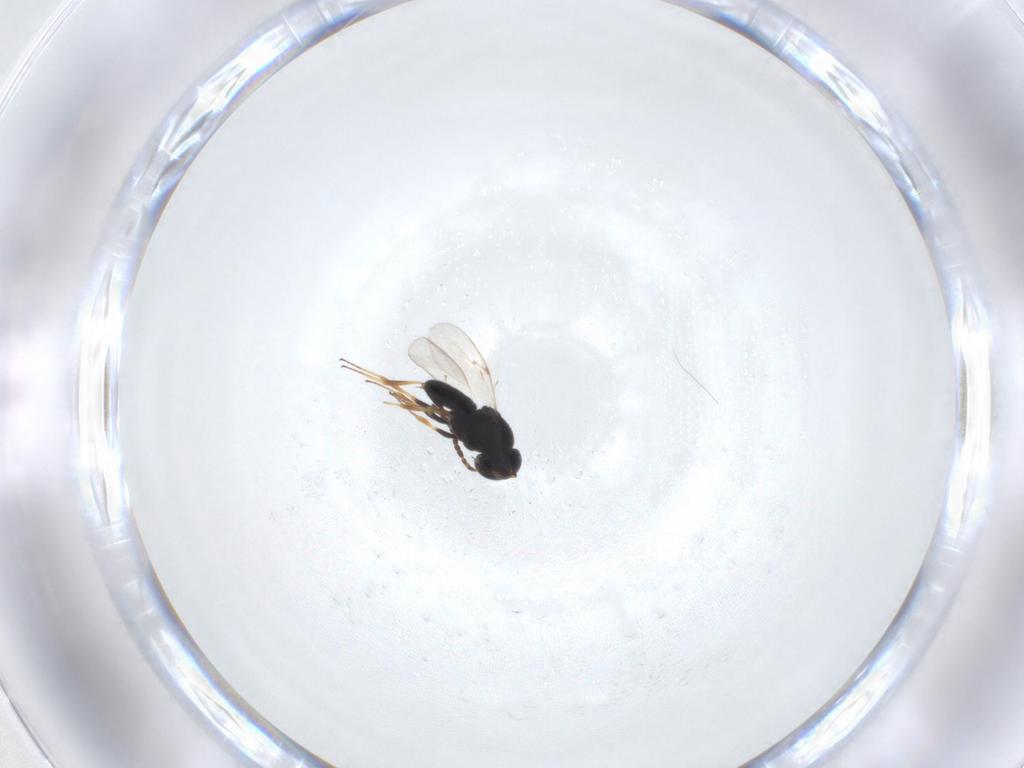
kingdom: Animalia
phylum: Arthropoda
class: Insecta
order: Hymenoptera
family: Scelionidae
